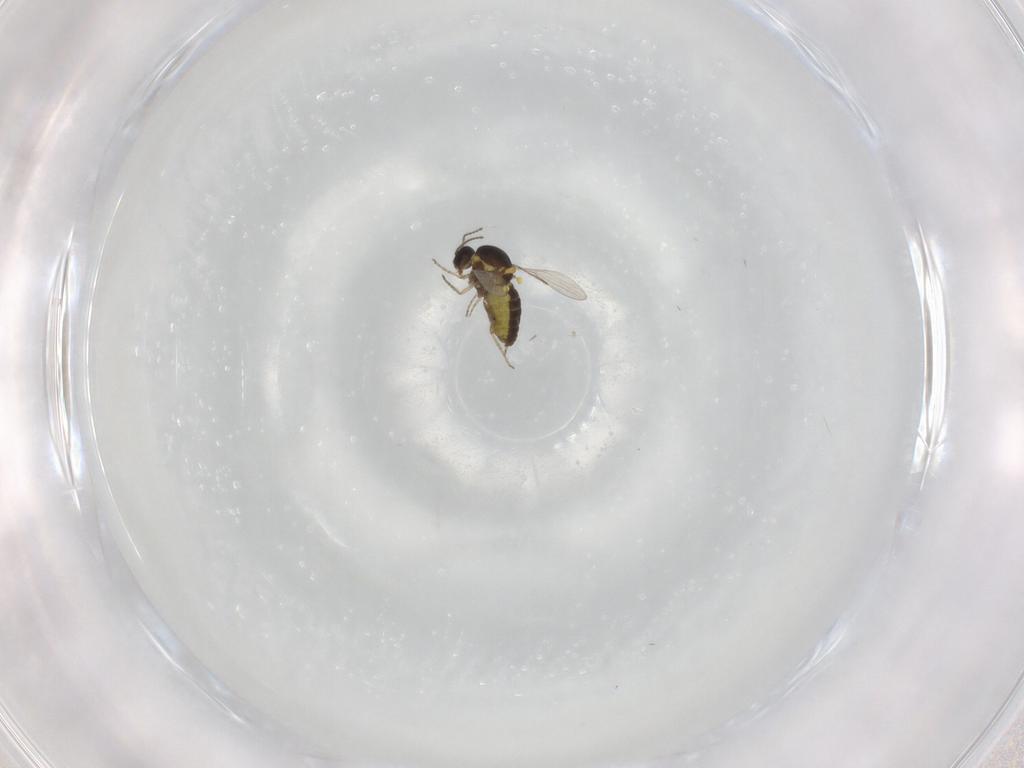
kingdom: Animalia
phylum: Arthropoda
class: Insecta
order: Diptera
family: Ceratopogonidae
